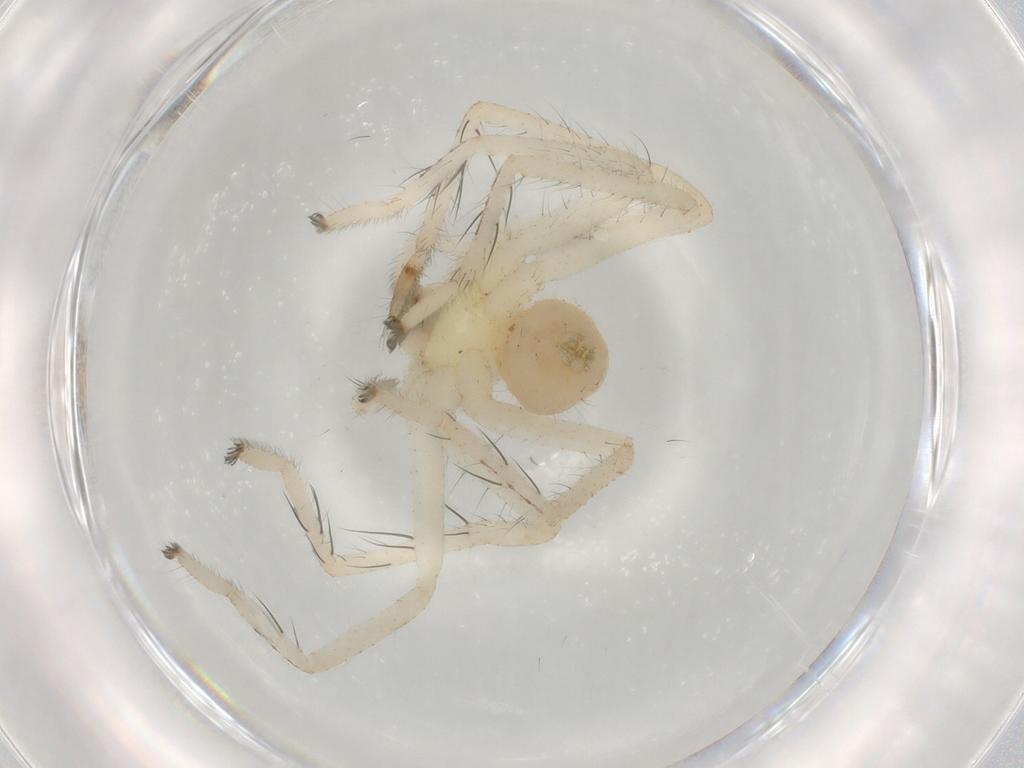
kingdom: Animalia
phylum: Arthropoda
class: Arachnida
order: Araneae
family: Sparassidae
